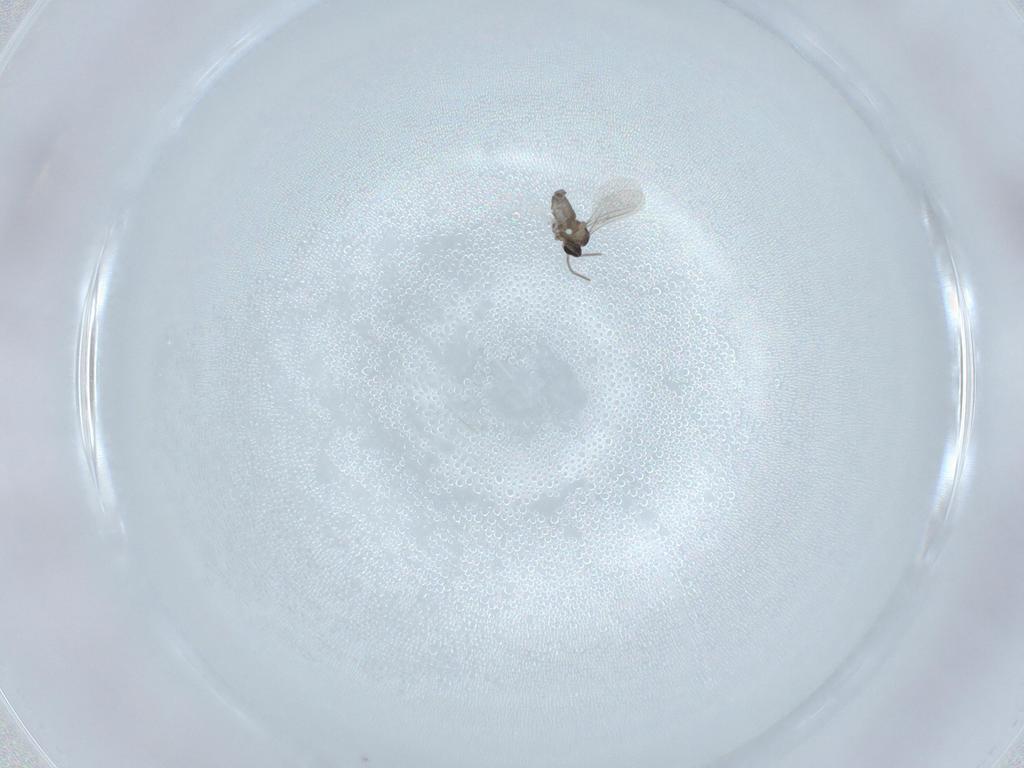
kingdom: Animalia
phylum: Arthropoda
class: Insecta
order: Diptera
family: Cecidomyiidae
